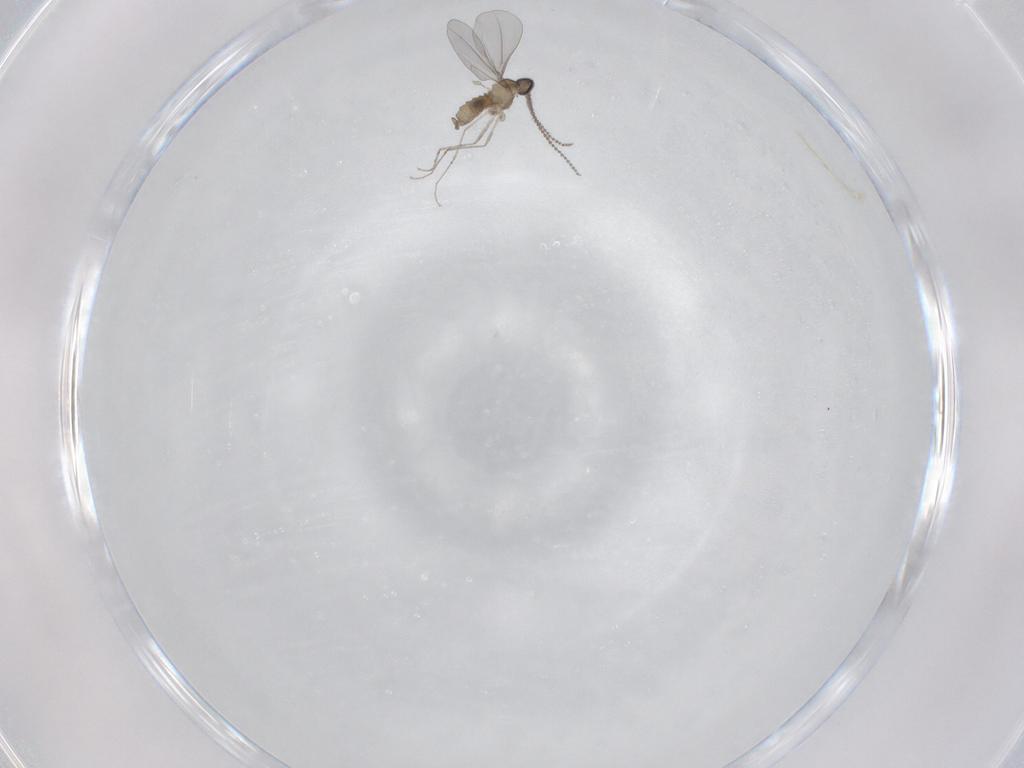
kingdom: Animalia
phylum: Arthropoda
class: Insecta
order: Diptera
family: Cecidomyiidae
